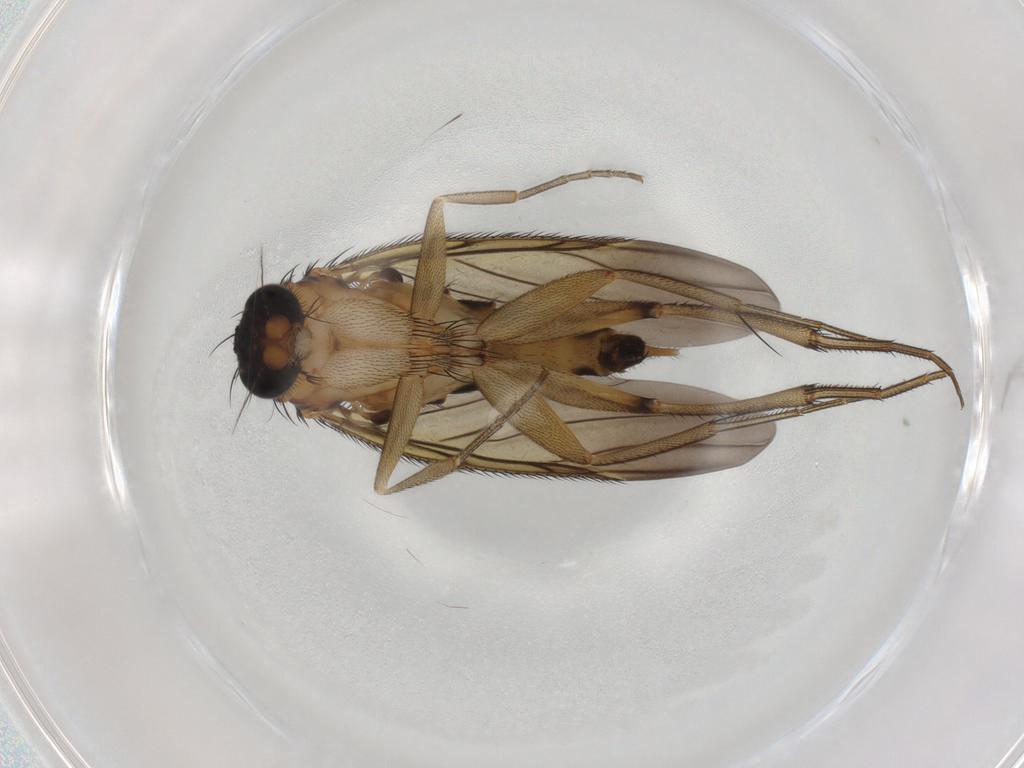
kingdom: Animalia
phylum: Arthropoda
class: Insecta
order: Diptera
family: Phoridae
